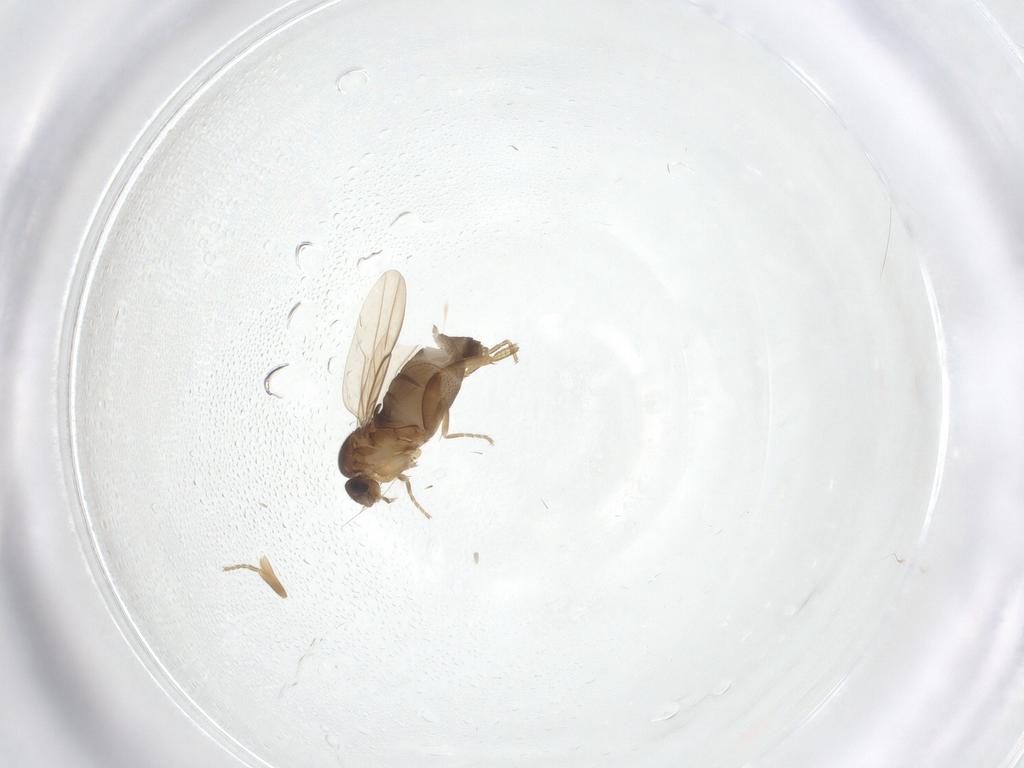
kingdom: Animalia
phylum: Arthropoda
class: Insecta
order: Diptera
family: Phoridae
